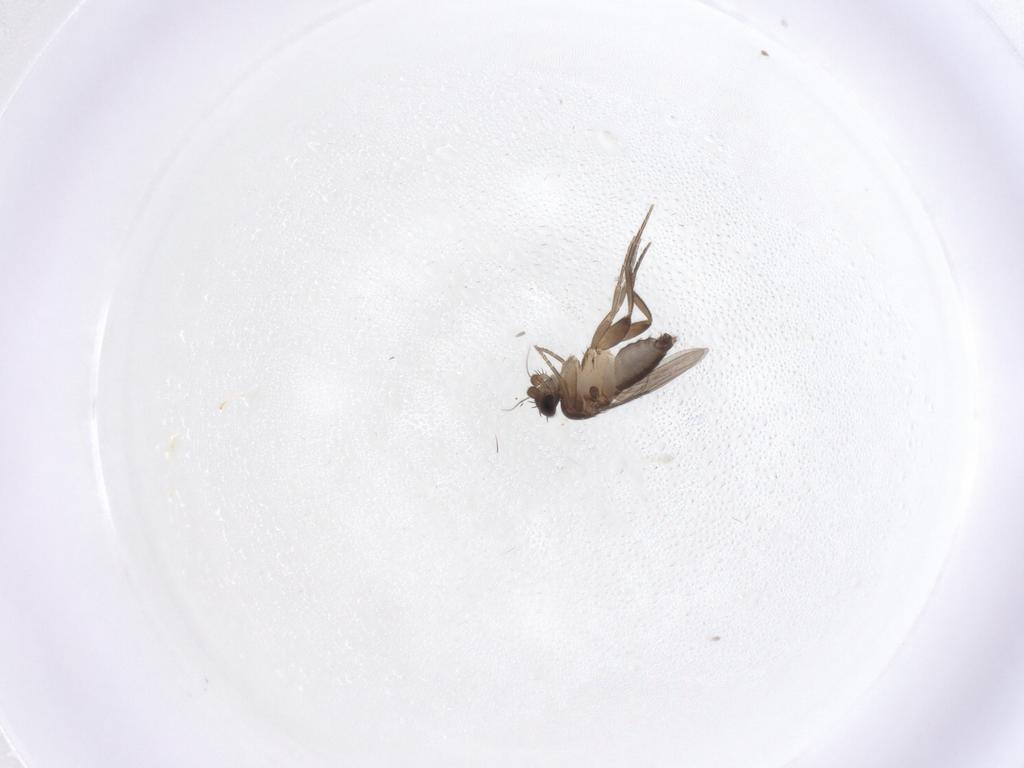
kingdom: Animalia
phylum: Arthropoda
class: Insecta
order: Diptera
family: Phoridae
